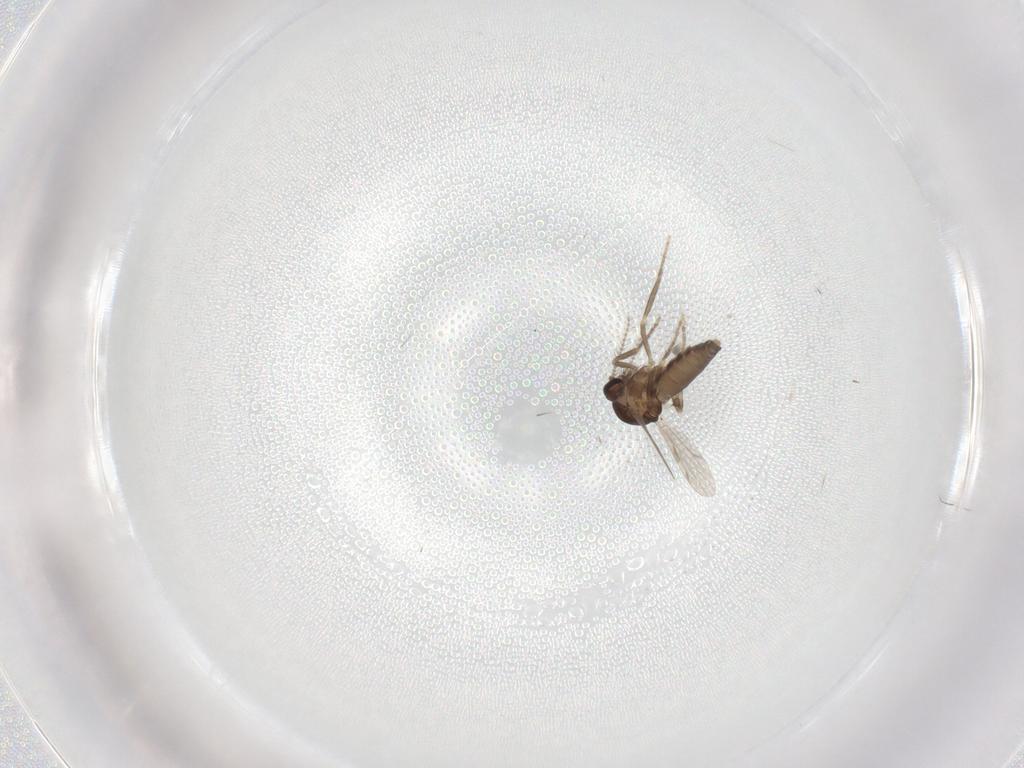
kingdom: Animalia
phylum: Arthropoda
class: Insecta
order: Diptera
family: Ceratopogonidae
